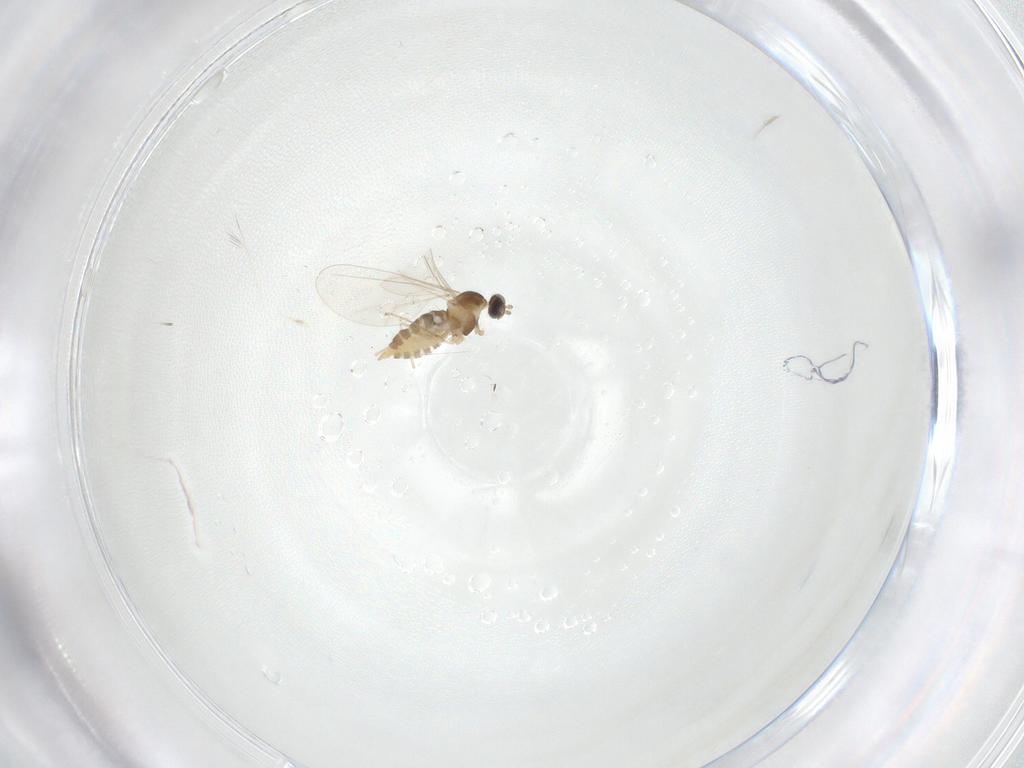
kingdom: Animalia
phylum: Arthropoda
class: Insecta
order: Diptera
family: Cecidomyiidae
